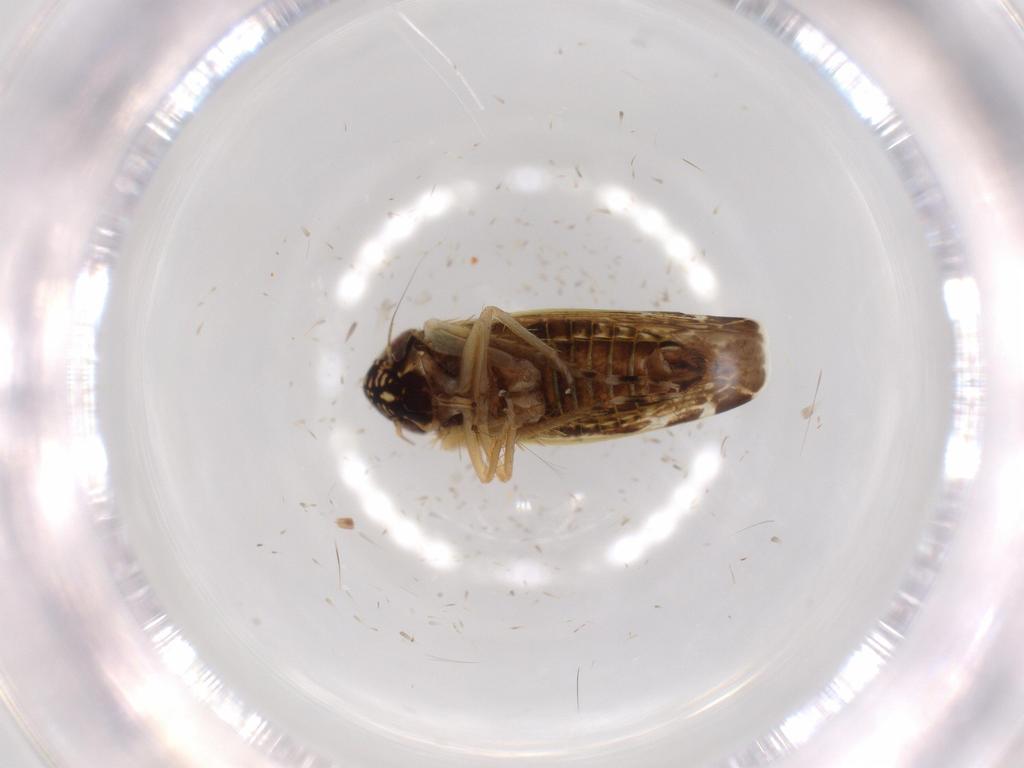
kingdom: Animalia
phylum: Arthropoda
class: Insecta
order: Hemiptera
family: Cicadellidae
